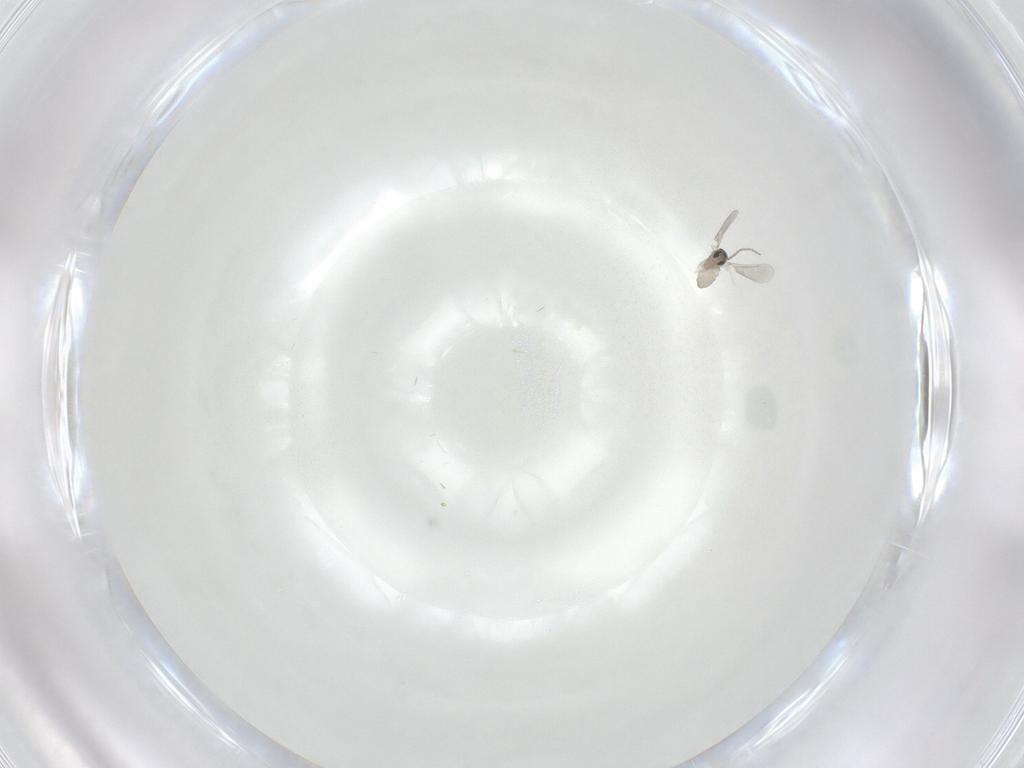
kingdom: Animalia
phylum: Arthropoda
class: Insecta
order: Diptera
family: Cecidomyiidae
